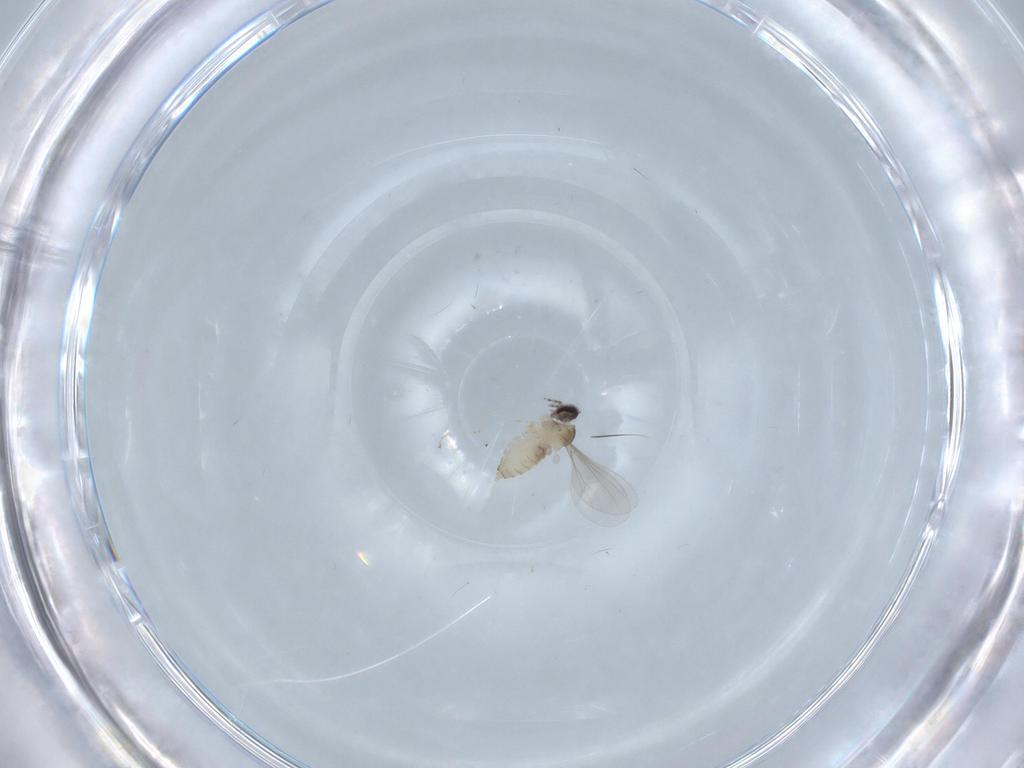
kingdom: Animalia
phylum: Arthropoda
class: Insecta
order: Diptera
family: Cecidomyiidae
